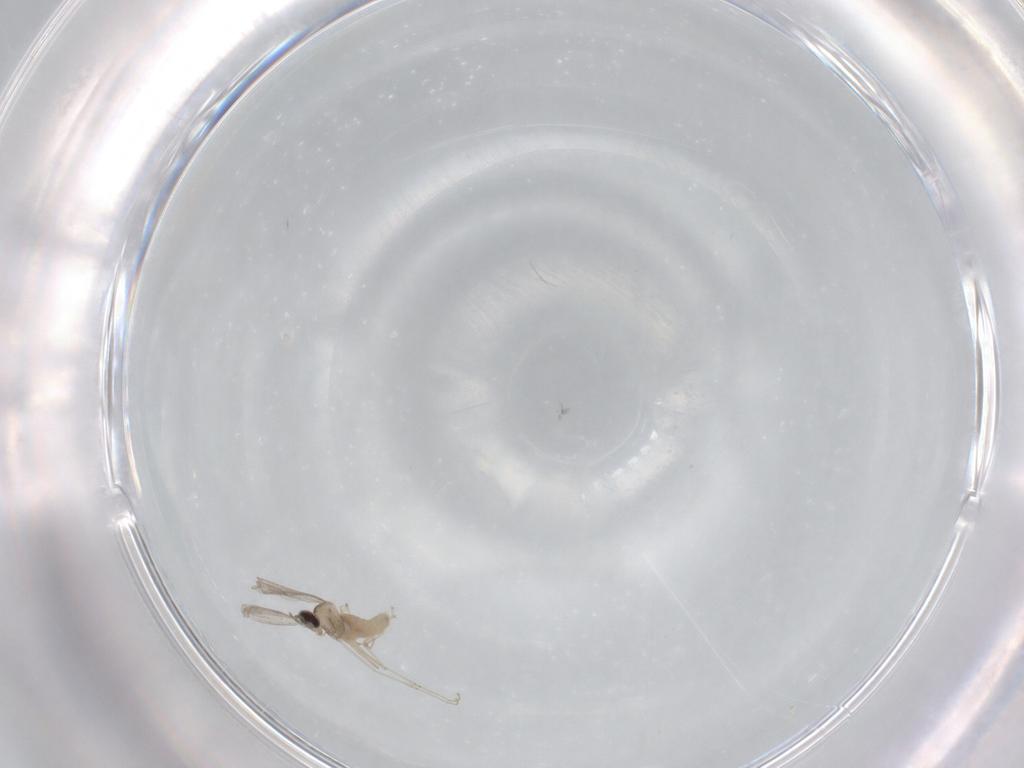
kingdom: Animalia
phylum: Arthropoda
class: Insecta
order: Diptera
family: Cecidomyiidae
